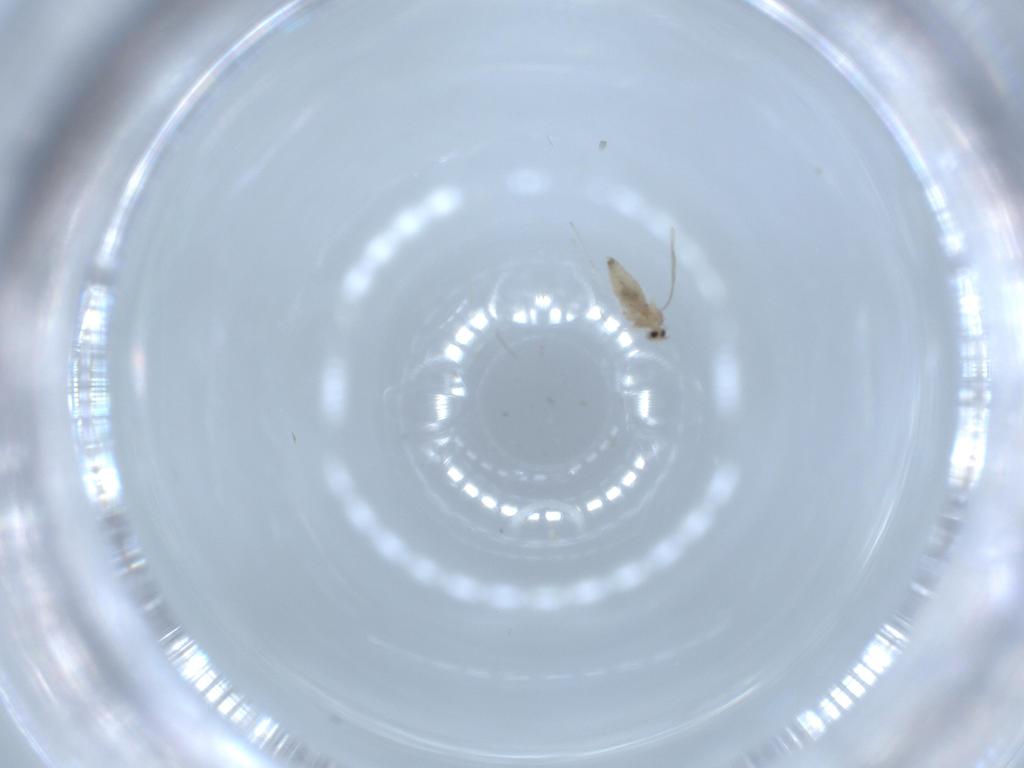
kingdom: Animalia
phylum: Arthropoda
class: Insecta
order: Diptera
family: Cecidomyiidae
